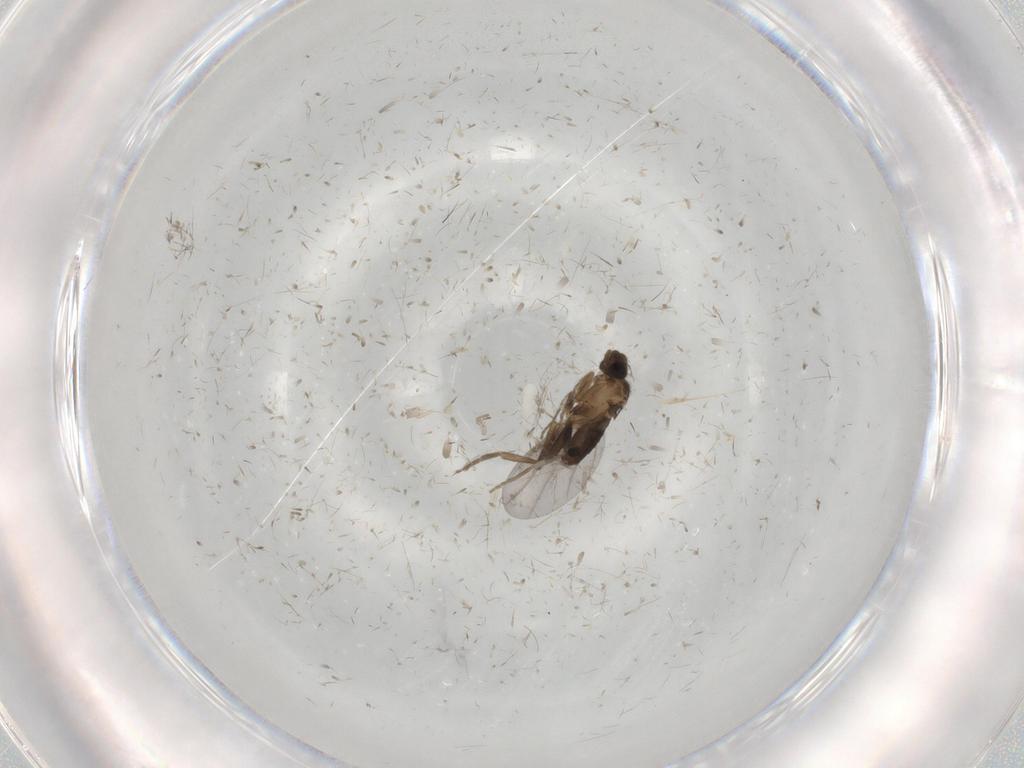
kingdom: Animalia
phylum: Arthropoda
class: Insecta
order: Diptera
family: Phoridae
